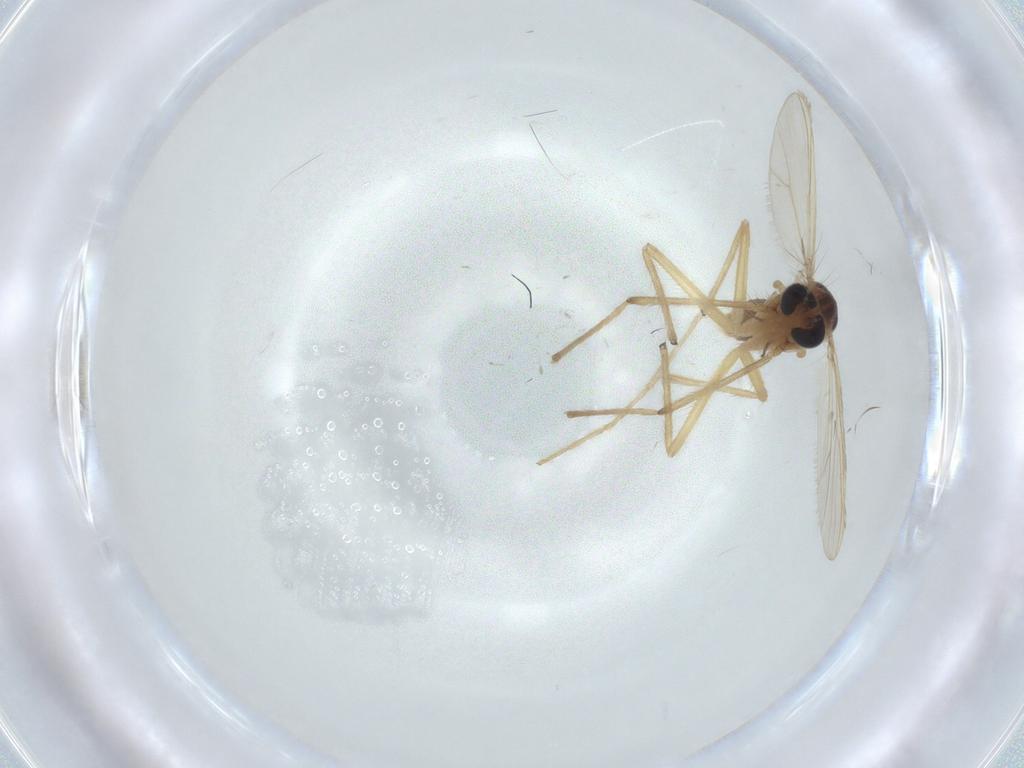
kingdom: Animalia
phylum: Arthropoda
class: Insecta
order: Diptera
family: Chironomidae
